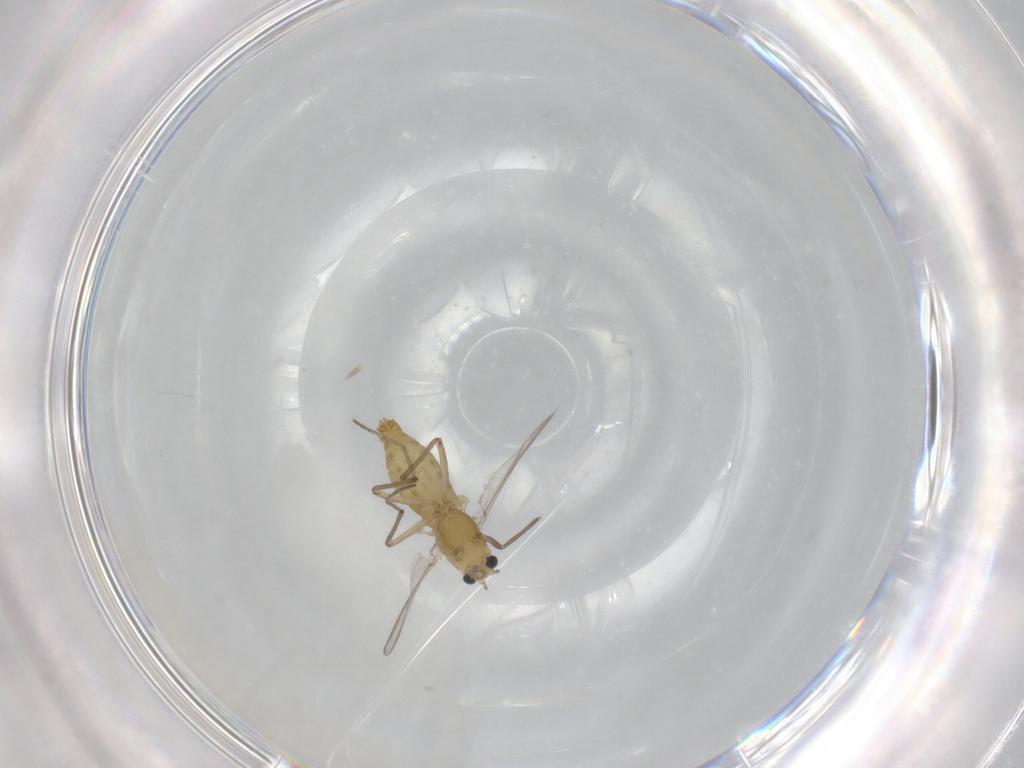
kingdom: Animalia
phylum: Arthropoda
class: Insecta
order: Diptera
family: Chironomidae
